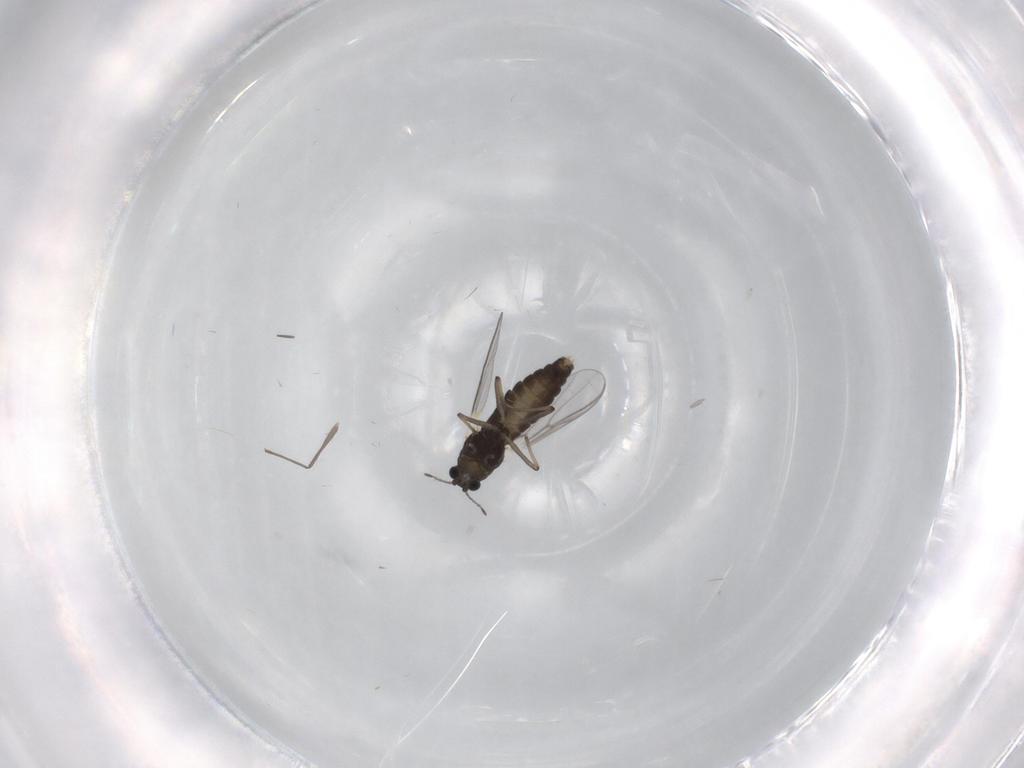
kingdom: Animalia
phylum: Arthropoda
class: Insecta
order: Diptera
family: Chironomidae
